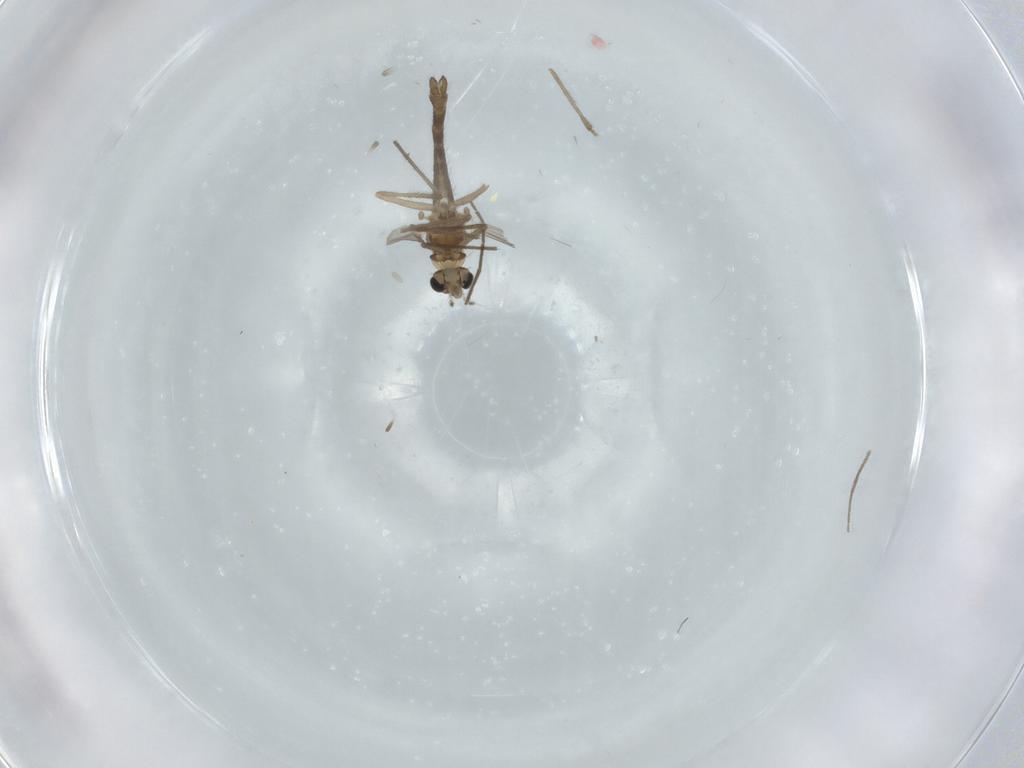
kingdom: Animalia
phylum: Arthropoda
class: Insecta
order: Diptera
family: Chironomidae
